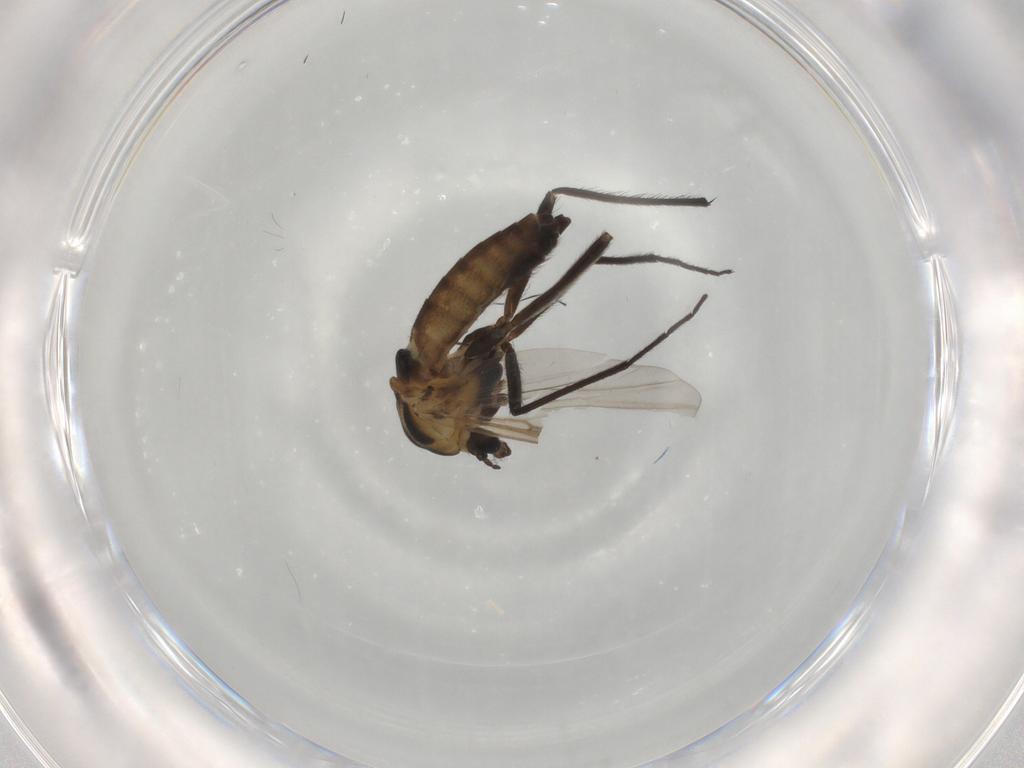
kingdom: Animalia
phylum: Arthropoda
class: Insecta
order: Diptera
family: Chironomidae
